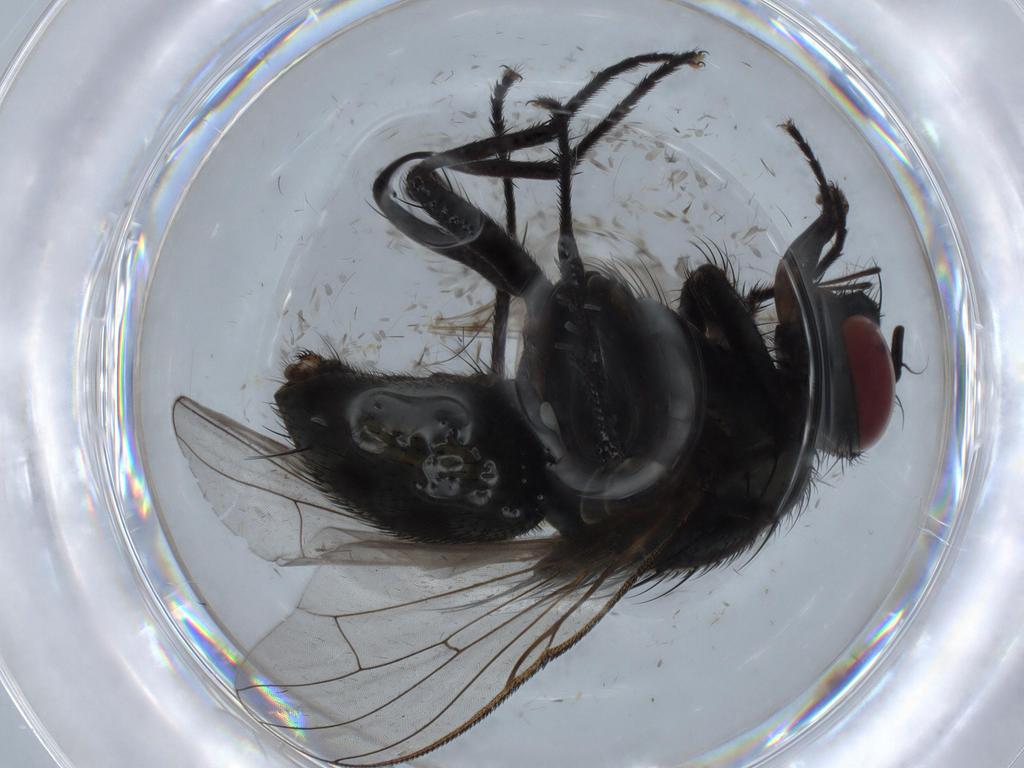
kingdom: Animalia
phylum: Arthropoda
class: Insecta
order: Diptera
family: Muscidae
